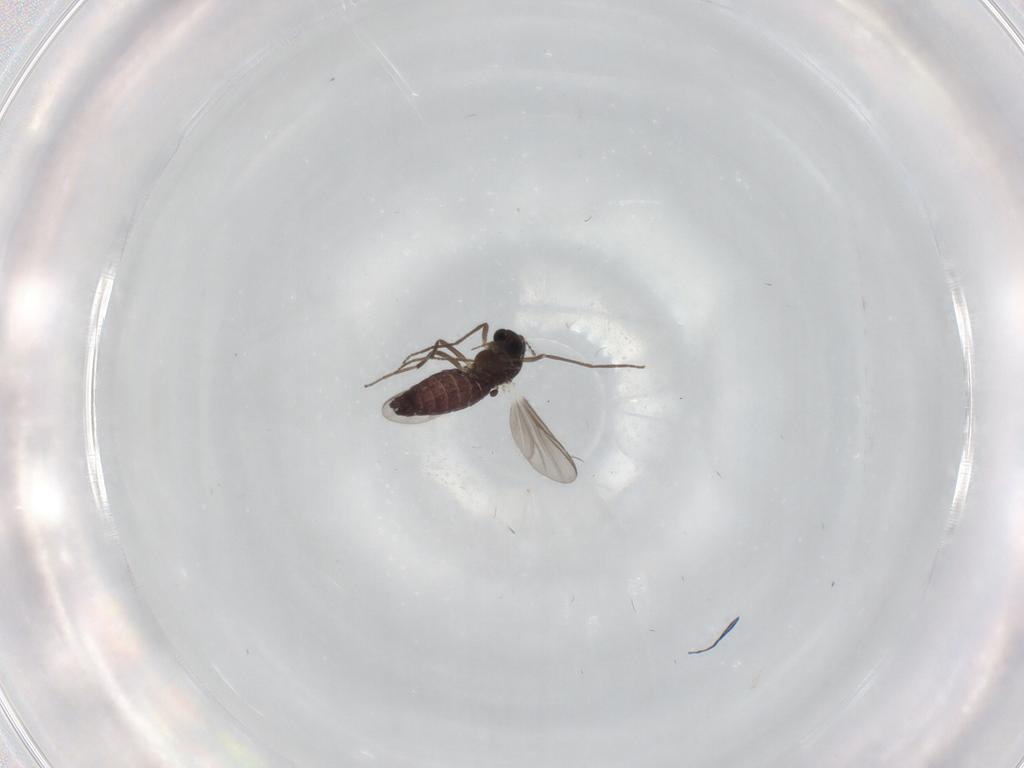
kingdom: Animalia
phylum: Arthropoda
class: Insecta
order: Diptera
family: Chironomidae
